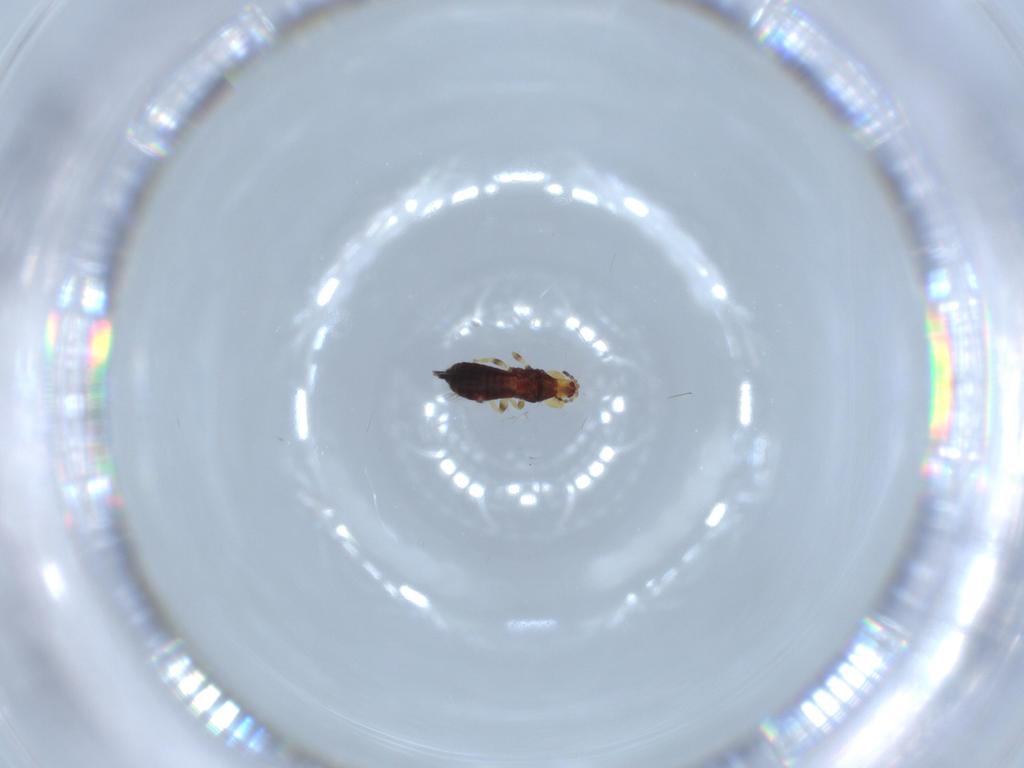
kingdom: Animalia
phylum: Arthropoda
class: Insecta
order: Thysanoptera
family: Phlaeothripidae
